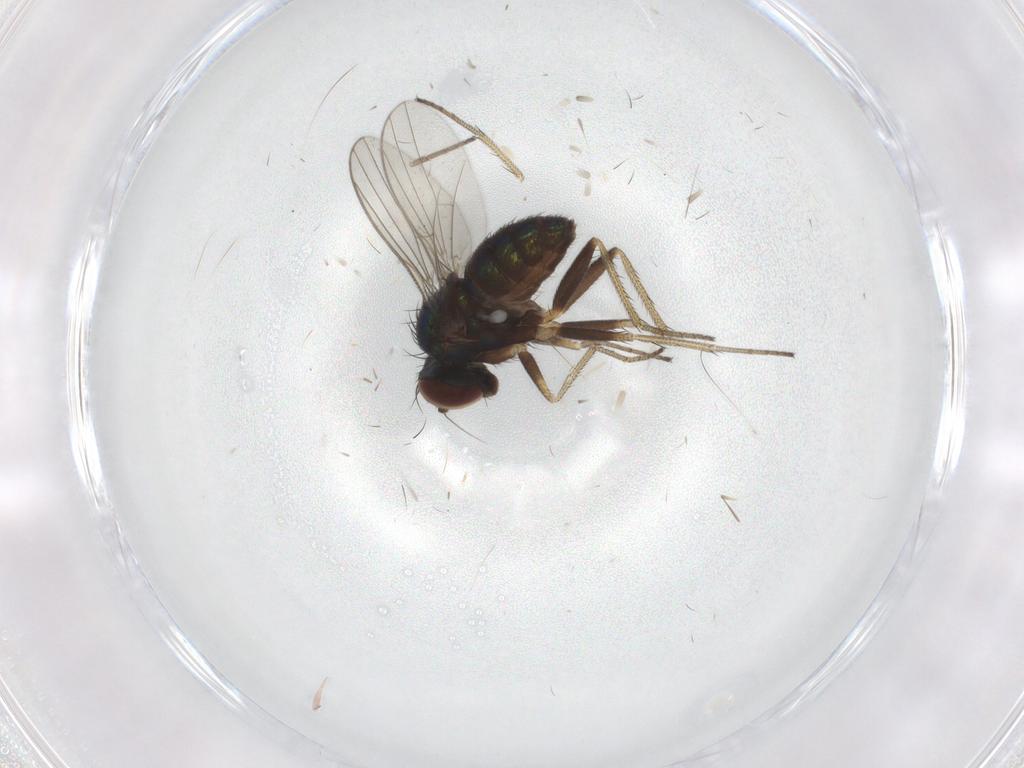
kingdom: Animalia
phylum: Arthropoda
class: Insecta
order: Diptera
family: Dolichopodidae
